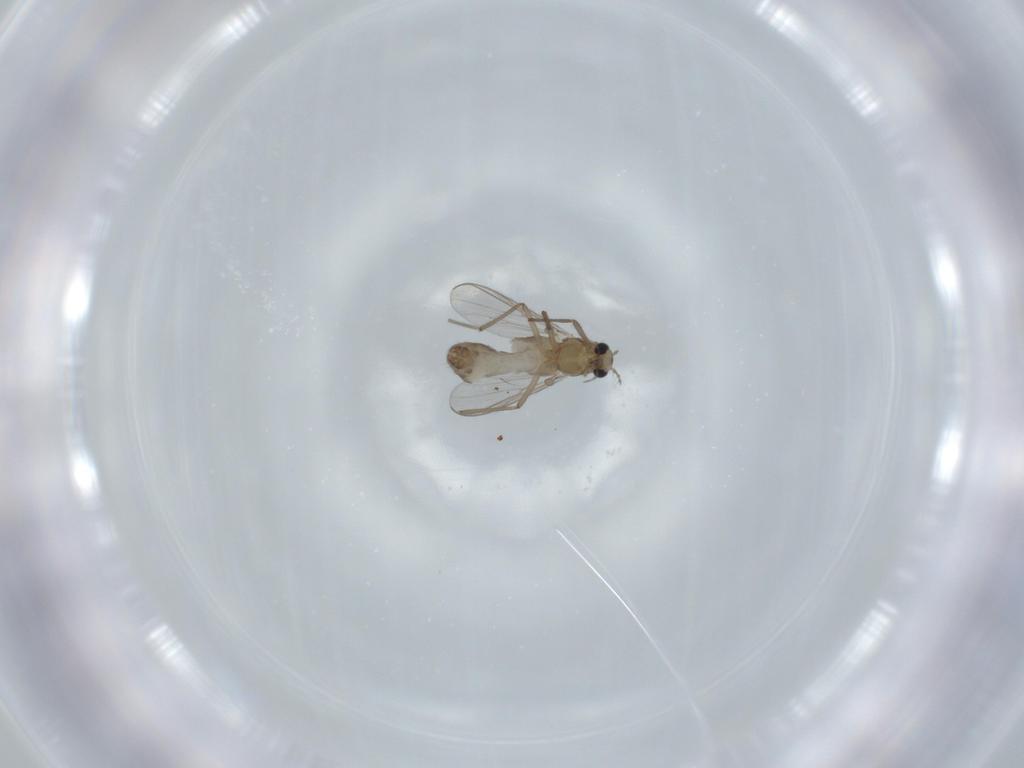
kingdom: Animalia
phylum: Arthropoda
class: Insecta
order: Diptera
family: Chironomidae
